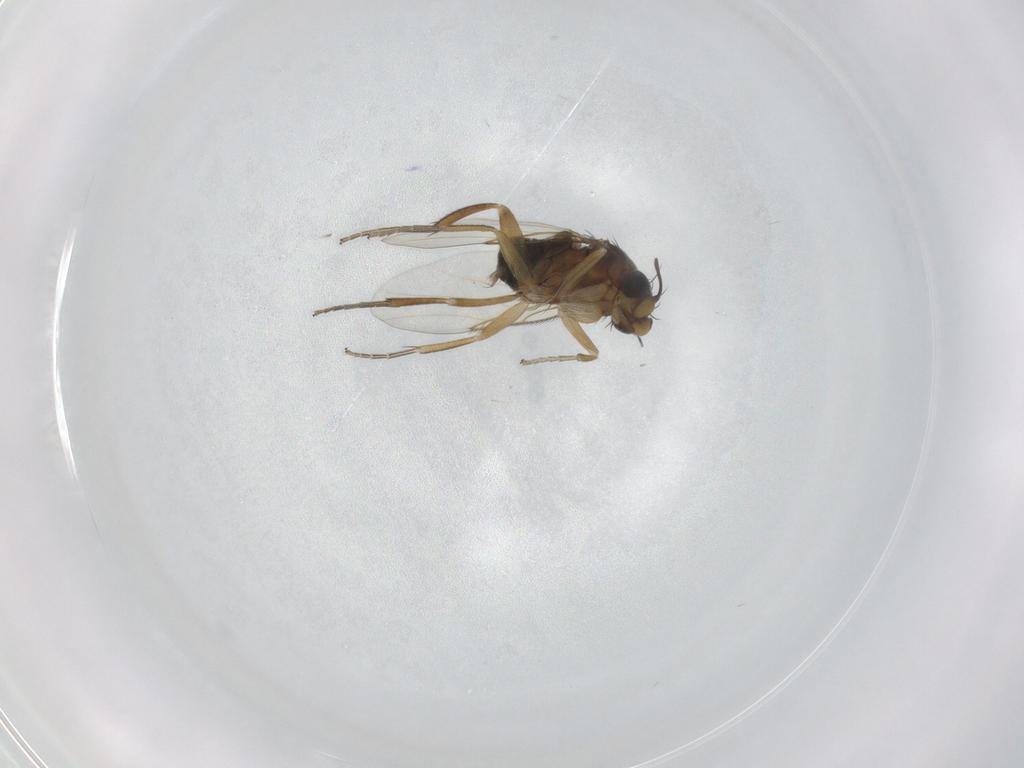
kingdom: Animalia
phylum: Arthropoda
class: Insecta
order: Diptera
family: Phoridae
